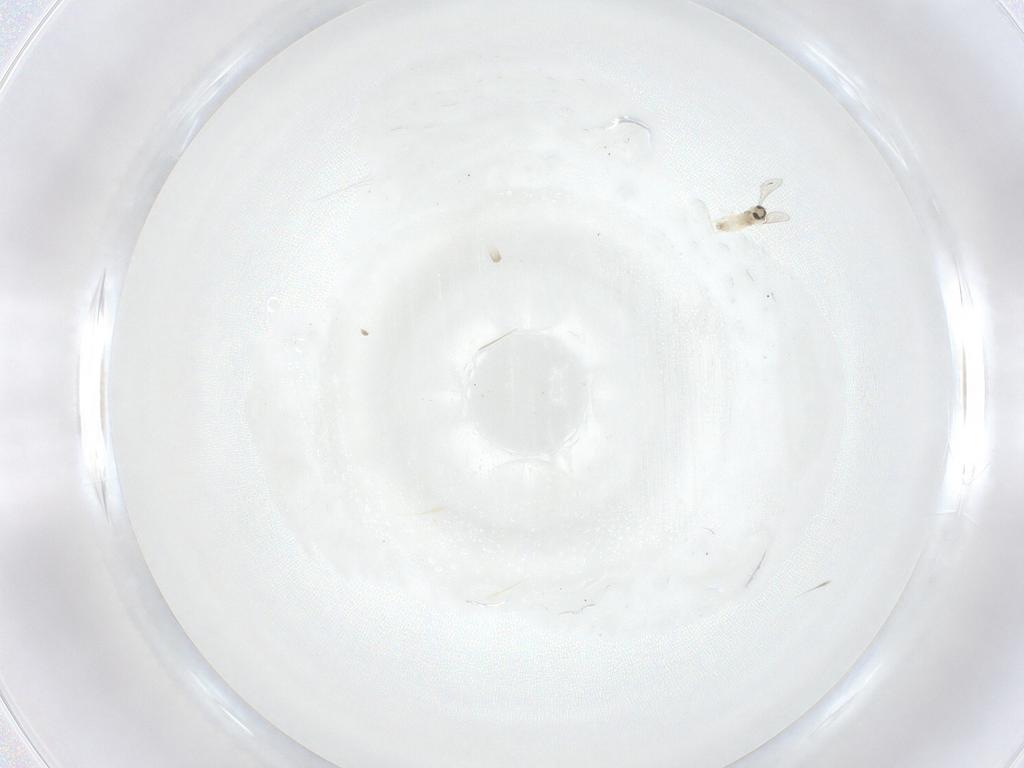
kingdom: Animalia
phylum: Arthropoda
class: Insecta
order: Diptera
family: Cecidomyiidae
